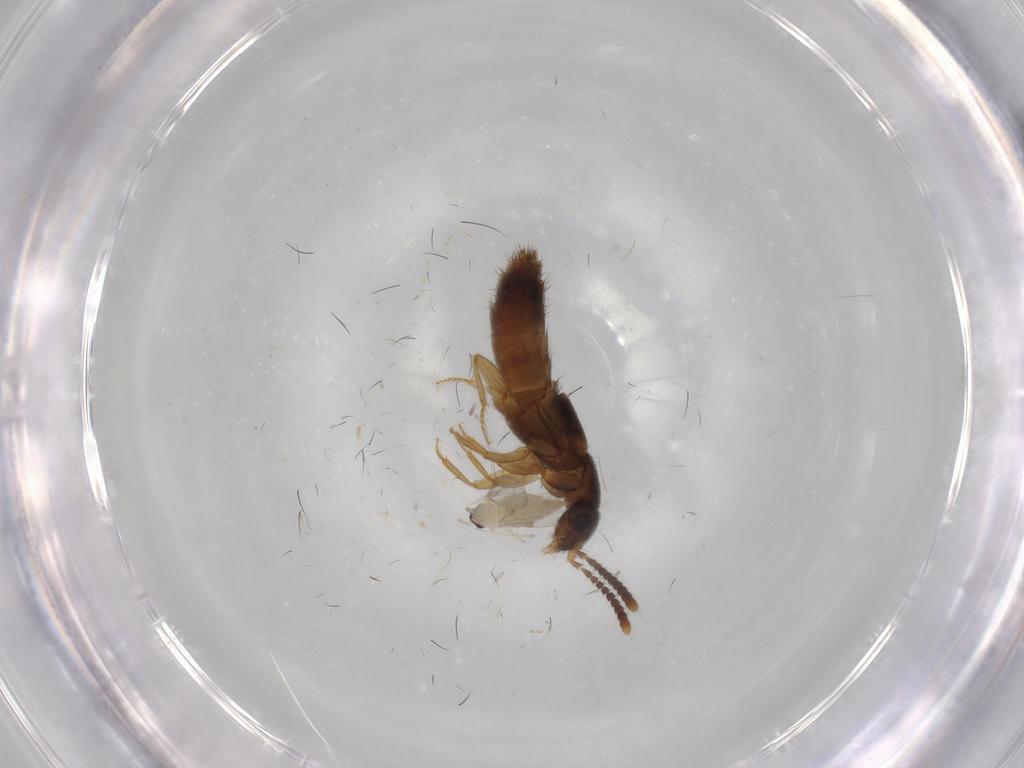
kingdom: Animalia
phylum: Arthropoda
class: Insecta
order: Diptera
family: Cecidomyiidae
